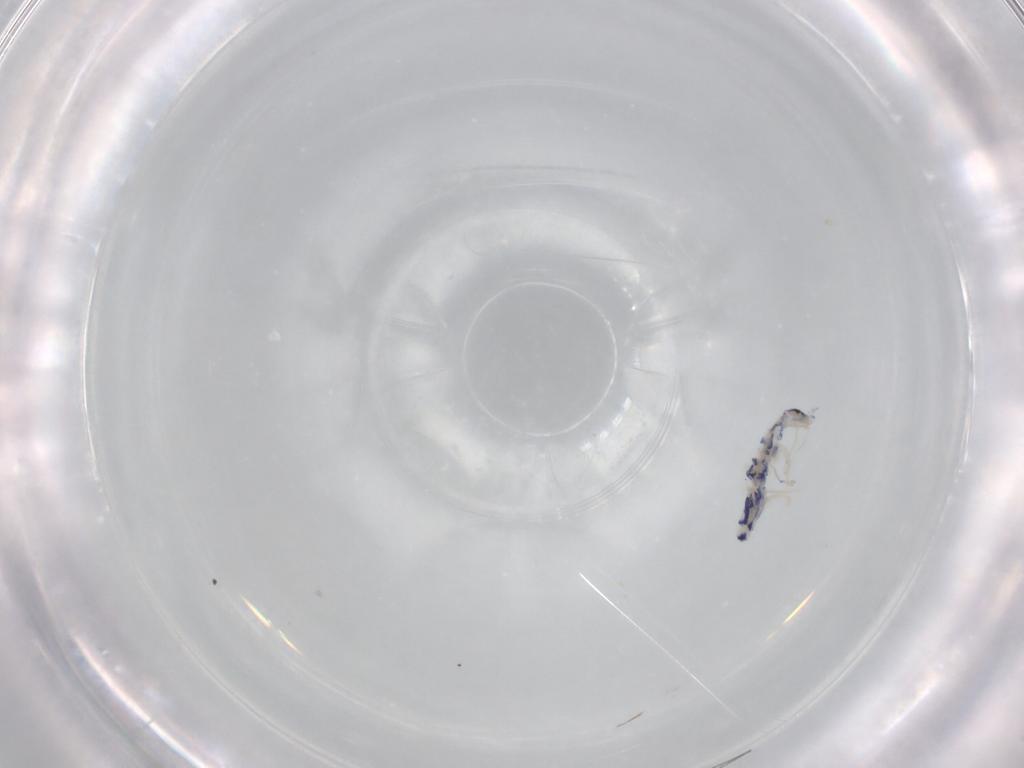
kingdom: Animalia
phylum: Arthropoda
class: Collembola
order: Entomobryomorpha
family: Entomobryidae
